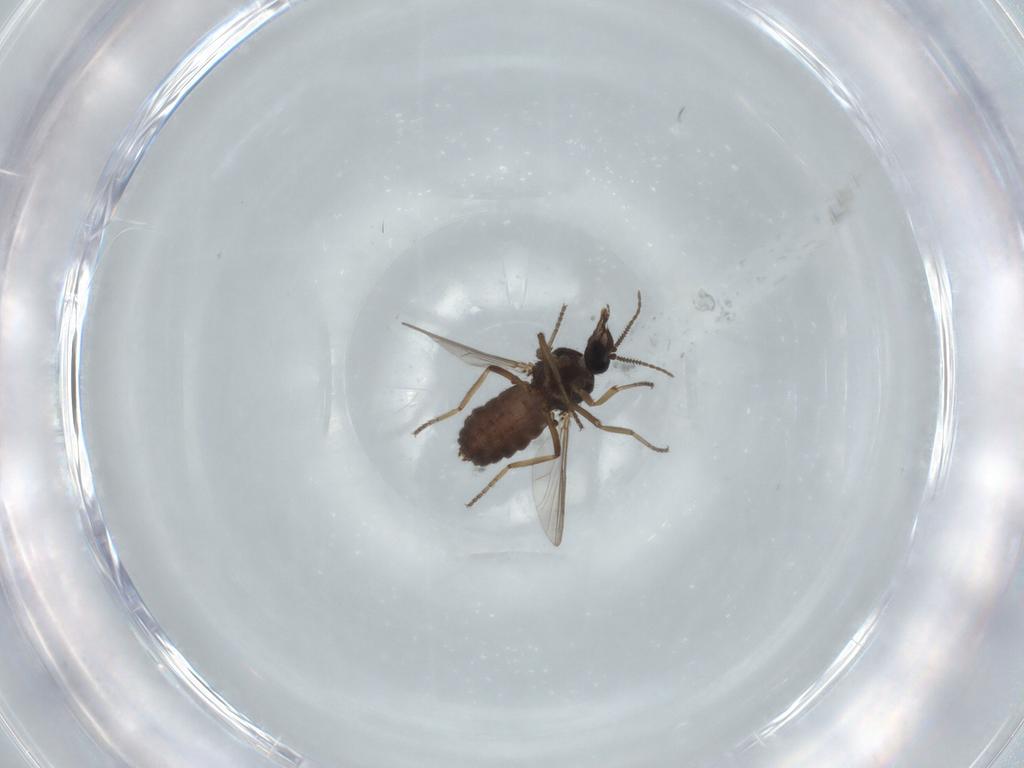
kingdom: Animalia
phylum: Arthropoda
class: Insecta
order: Diptera
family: Ceratopogonidae
